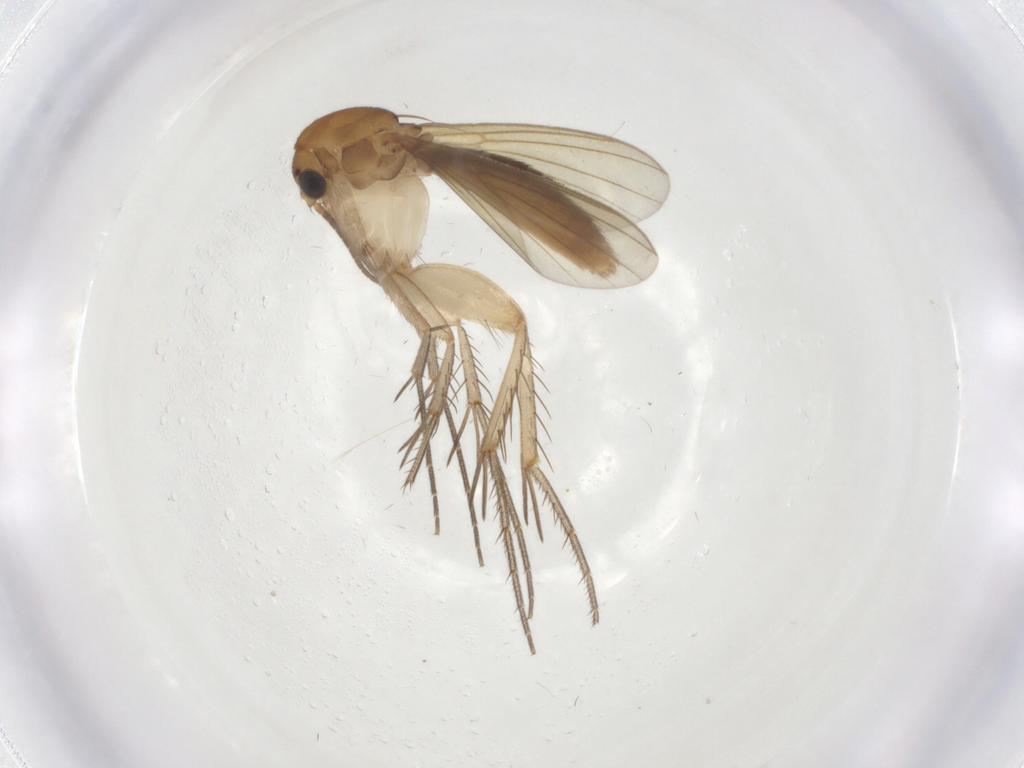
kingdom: Animalia
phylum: Arthropoda
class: Insecta
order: Diptera
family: Sciaridae
